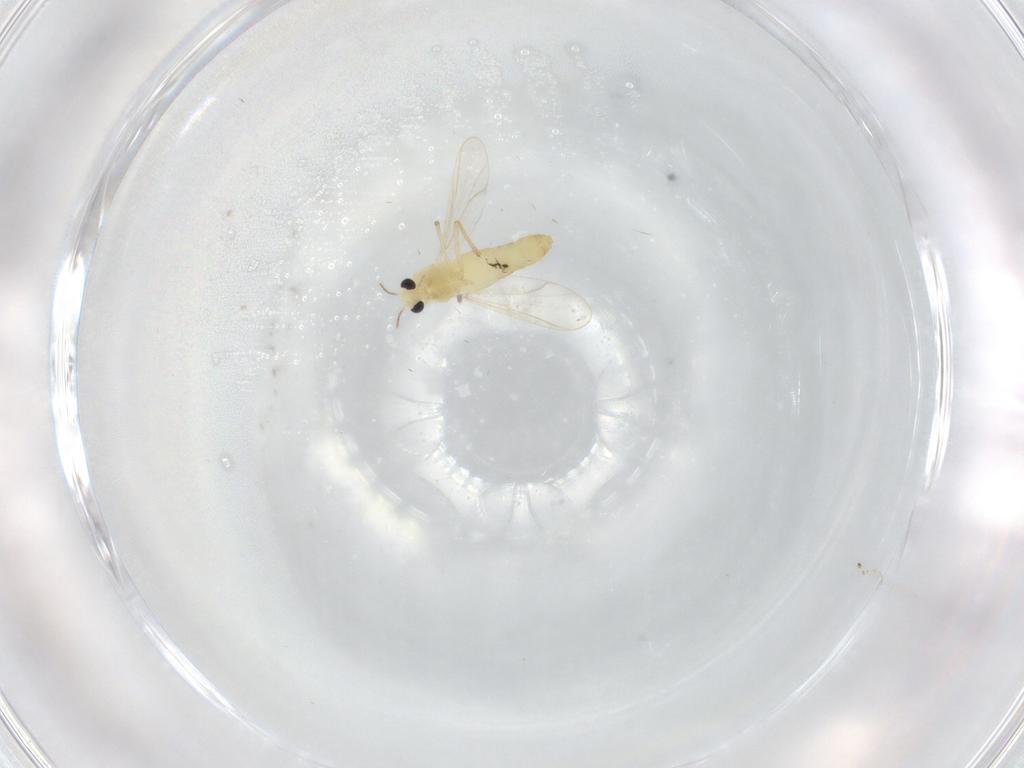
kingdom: Animalia
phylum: Arthropoda
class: Insecta
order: Diptera
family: Chironomidae
